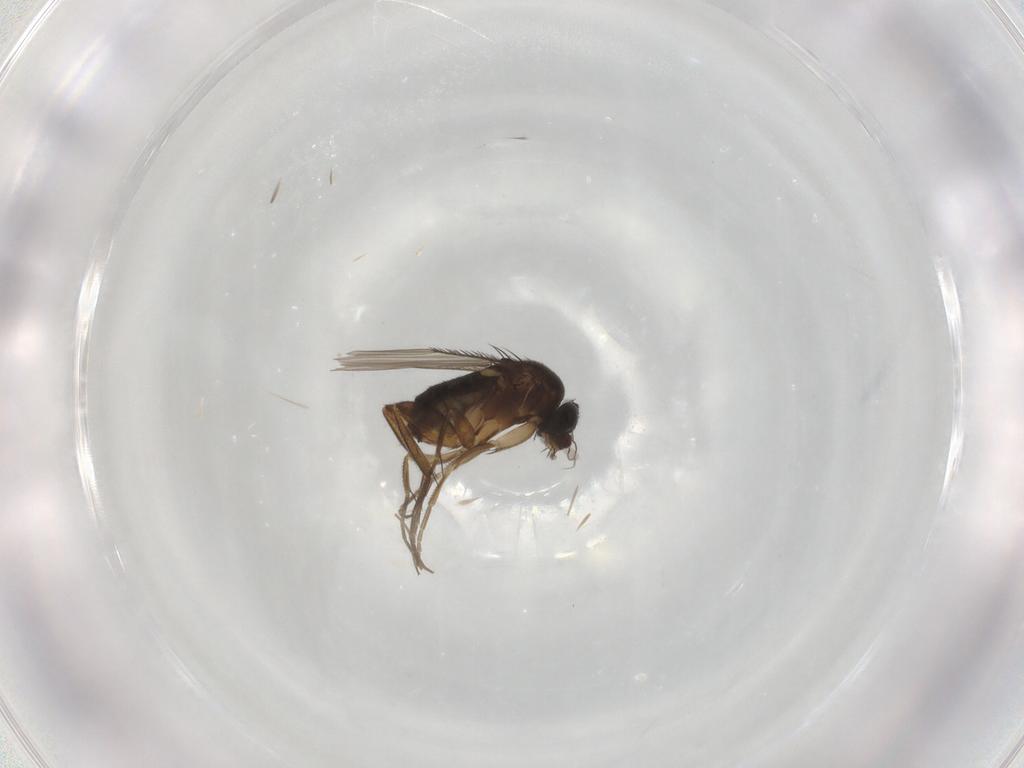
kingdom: Animalia
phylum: Arthropoda
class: Insecta
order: Diptera
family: Phoridae
